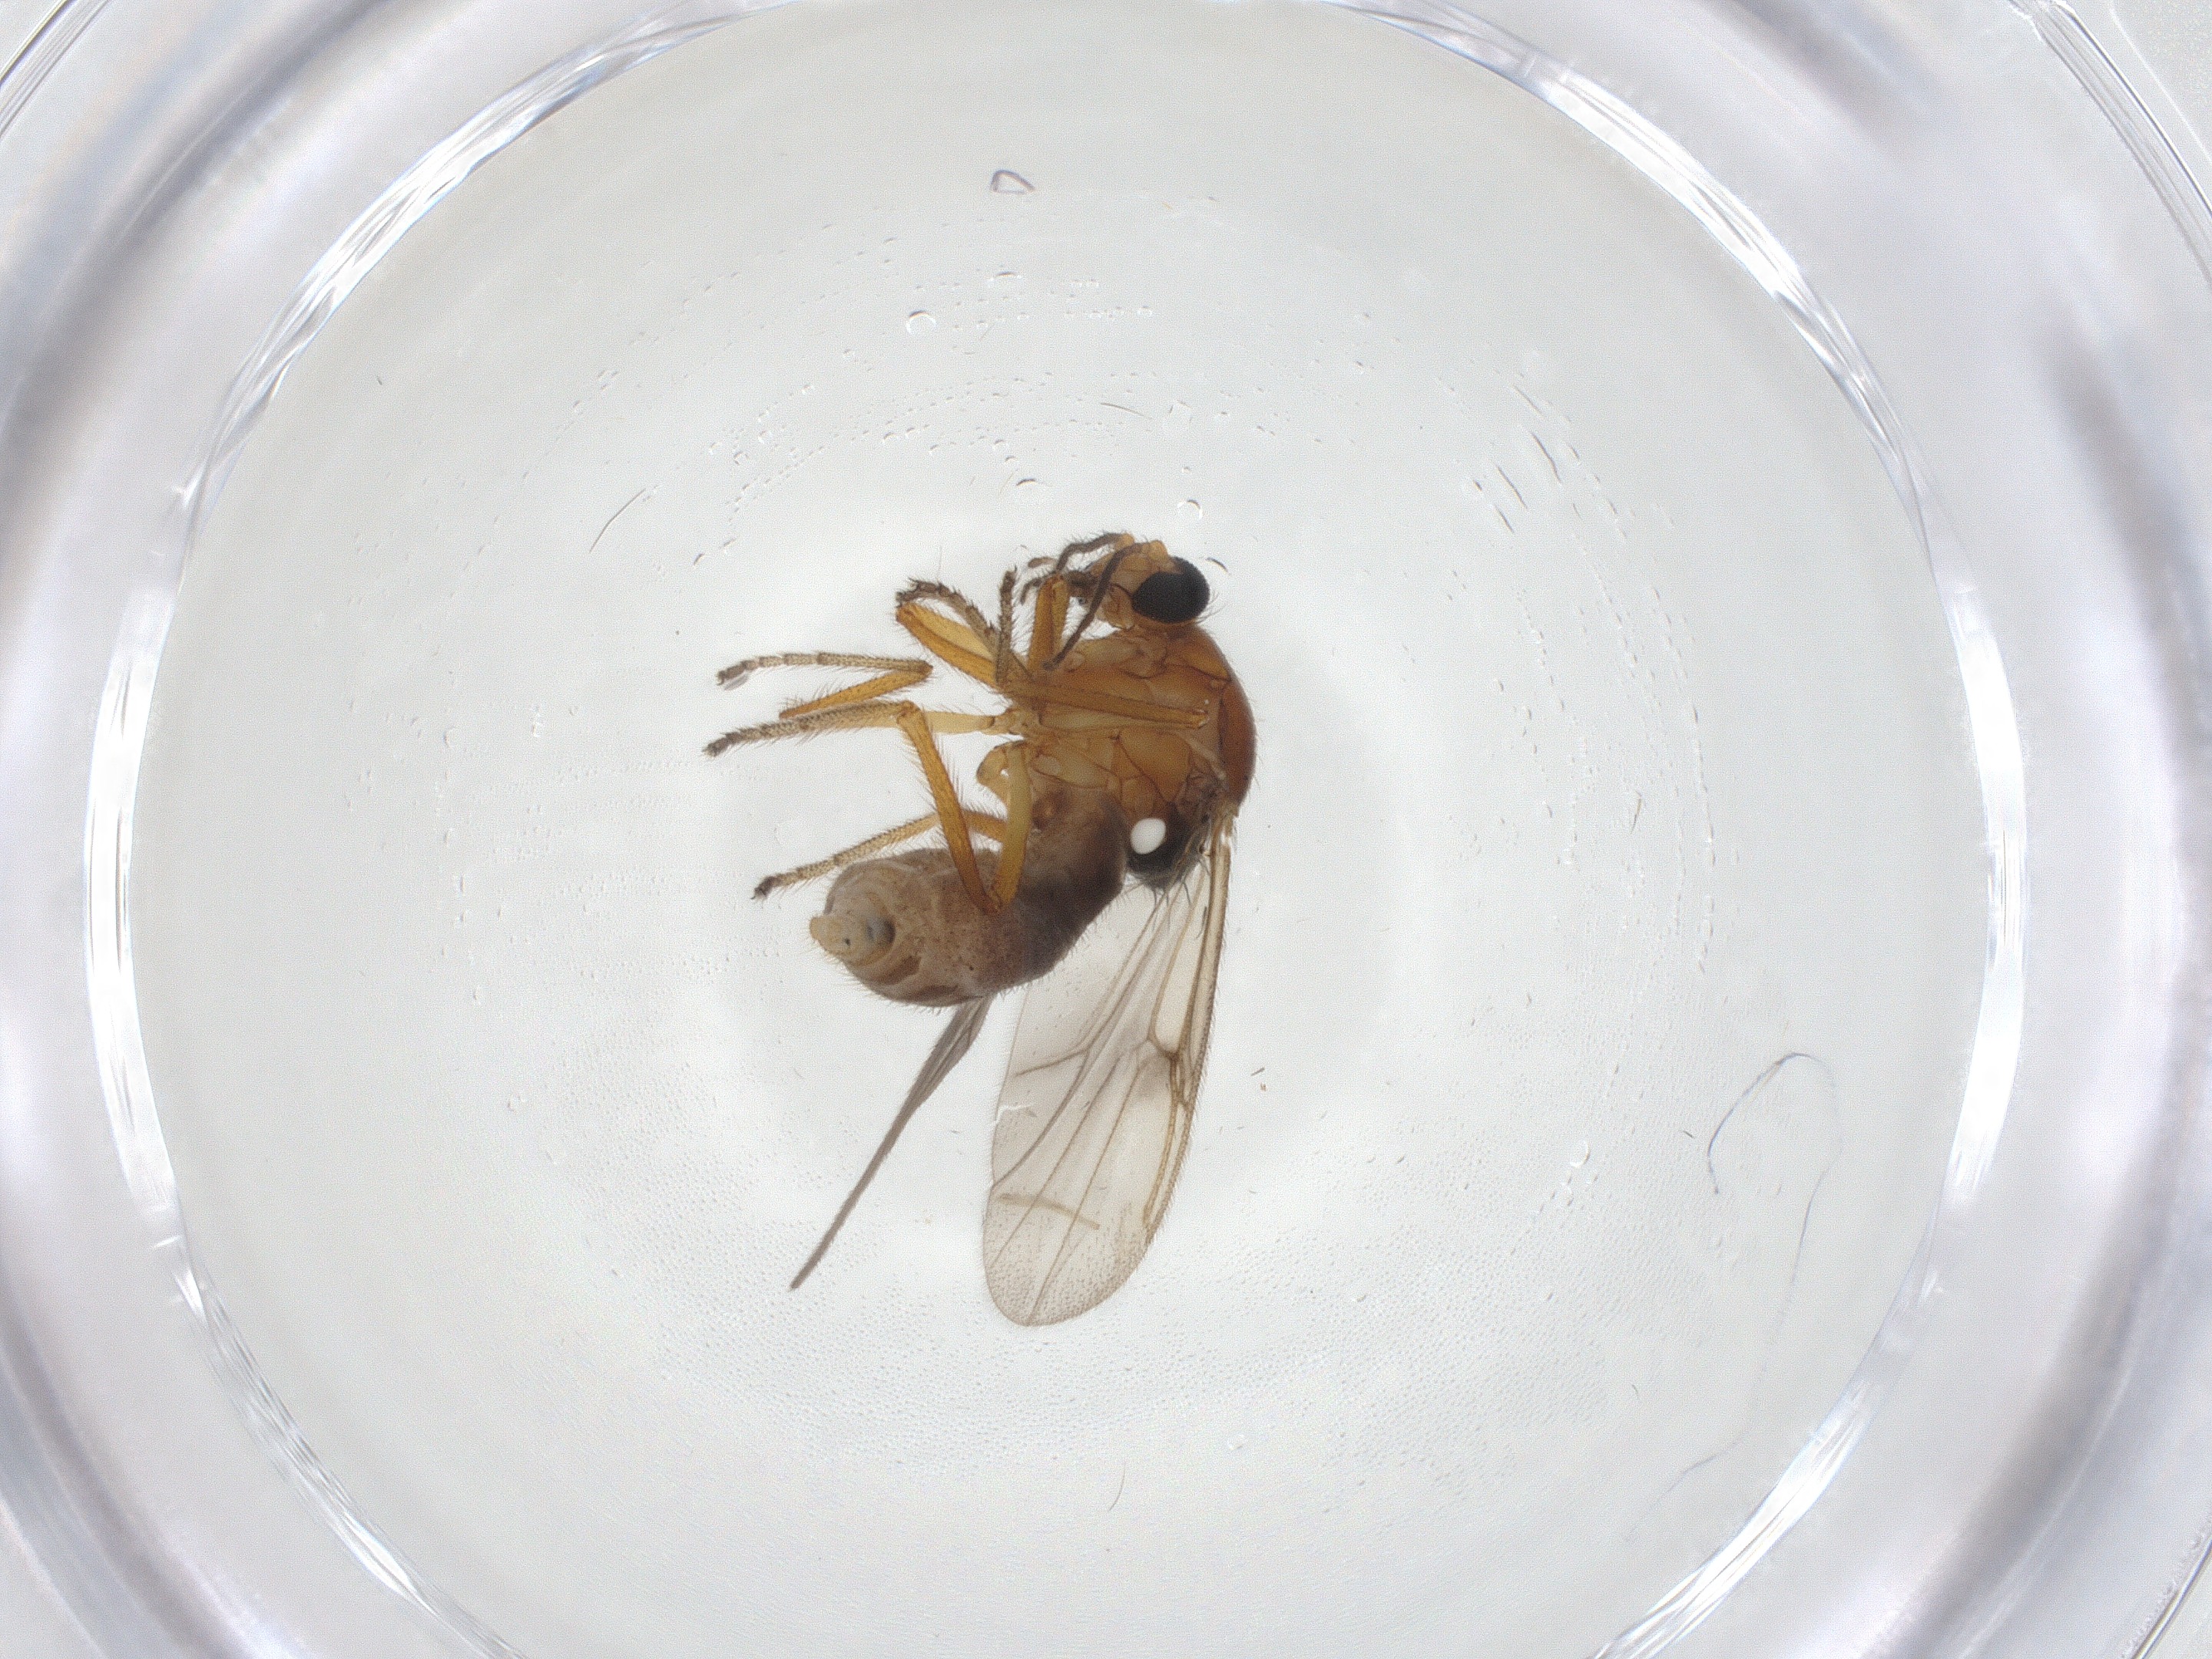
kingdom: Animalia
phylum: Arthropoda
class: Insecta
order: Diptera
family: Ceratopogonidae
